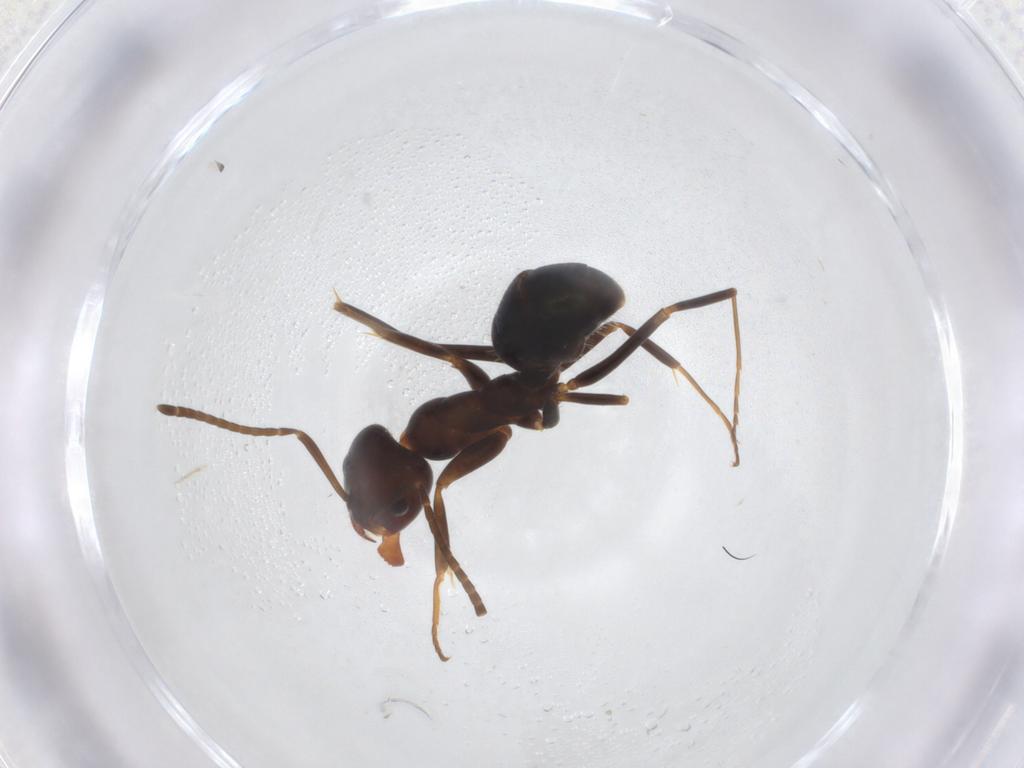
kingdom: Animalia
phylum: Arthropoda
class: Insecta
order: Hymenoptera
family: Formicidae
